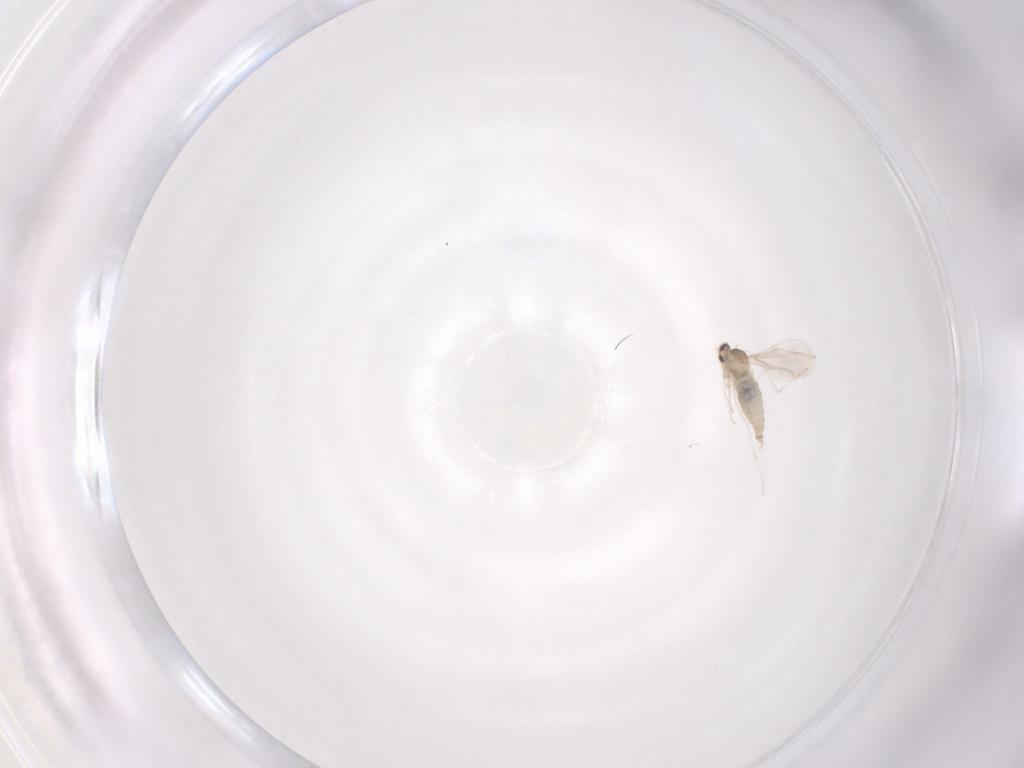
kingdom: Animalia
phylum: Arthropoda
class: Insecta
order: Diptera
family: Cecidomyiidae
